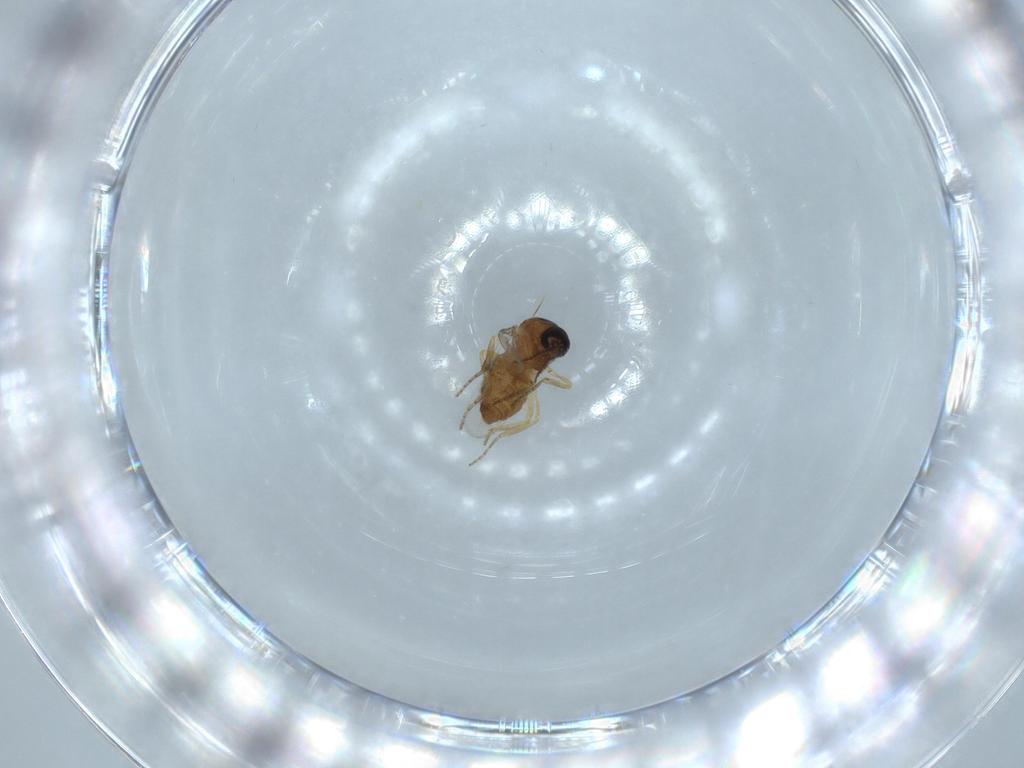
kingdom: Animalia
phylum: Arthropoda
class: Insecta
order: Diptera
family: Ceratopogonidae
